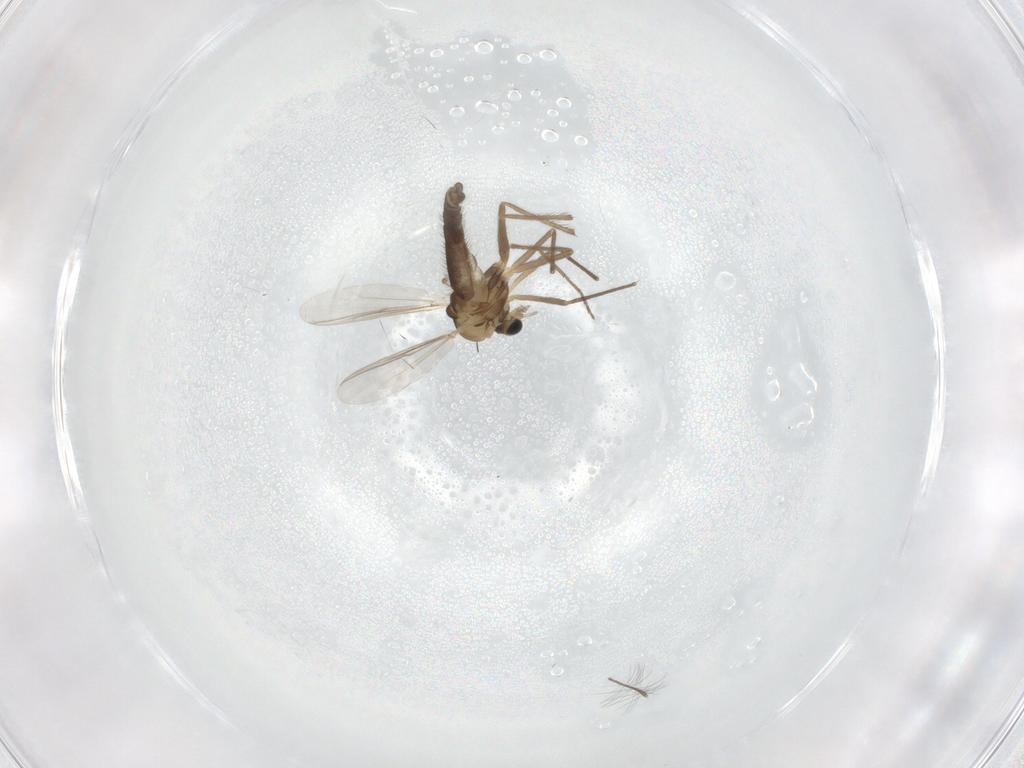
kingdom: Animalia
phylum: Arthropoda
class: Insecta
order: Diptera
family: Chironomidae
